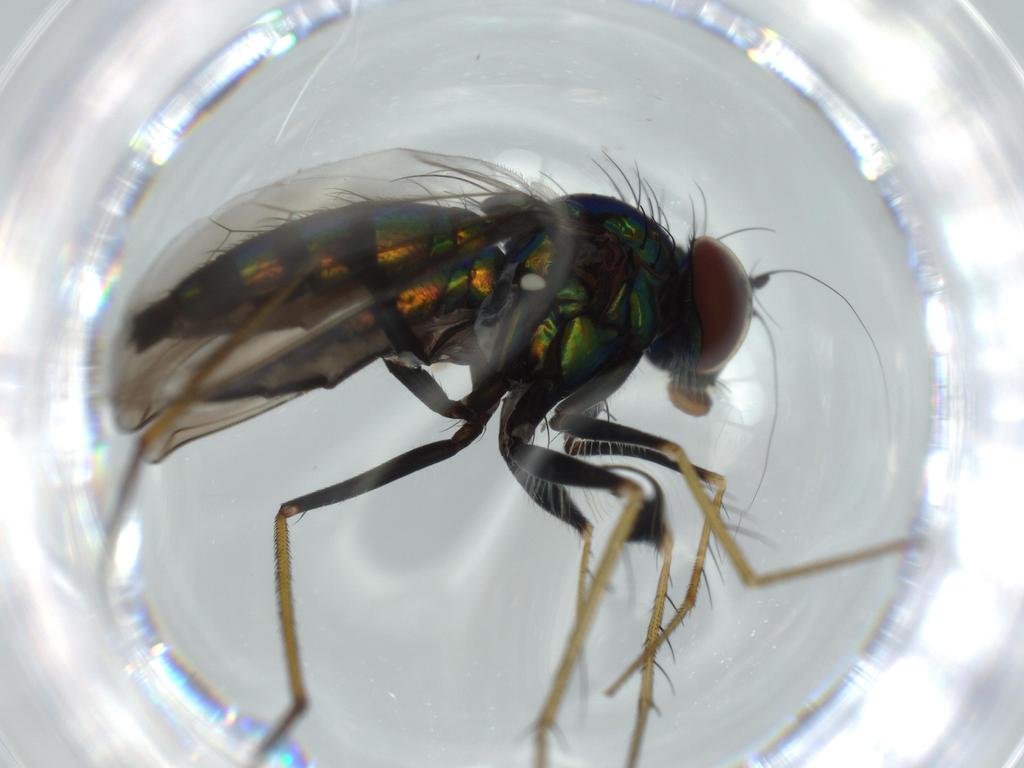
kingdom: Animalia
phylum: Arthropoda
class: Insecta
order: Diptera
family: Dolichopodidae
